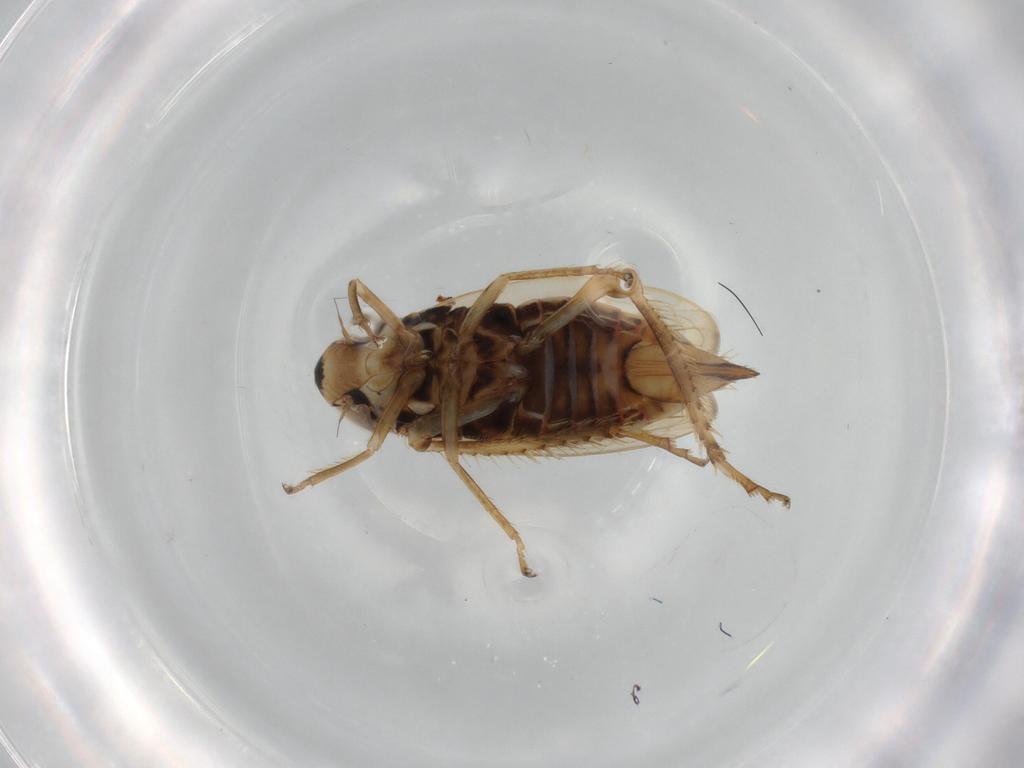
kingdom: Animalia
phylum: Arthropoda
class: Insecta
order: Hemiptera
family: Cicadellidae
